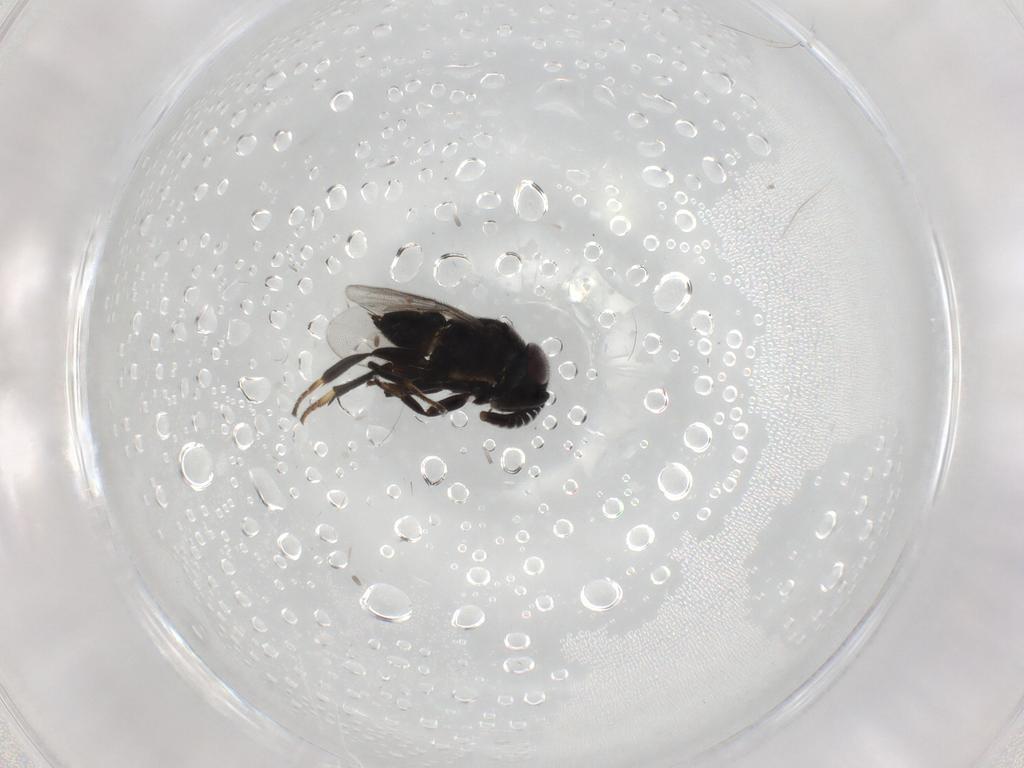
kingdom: Animalia
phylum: Arthropoda
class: Insecta
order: Hymenoptera
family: Encyrtidae
